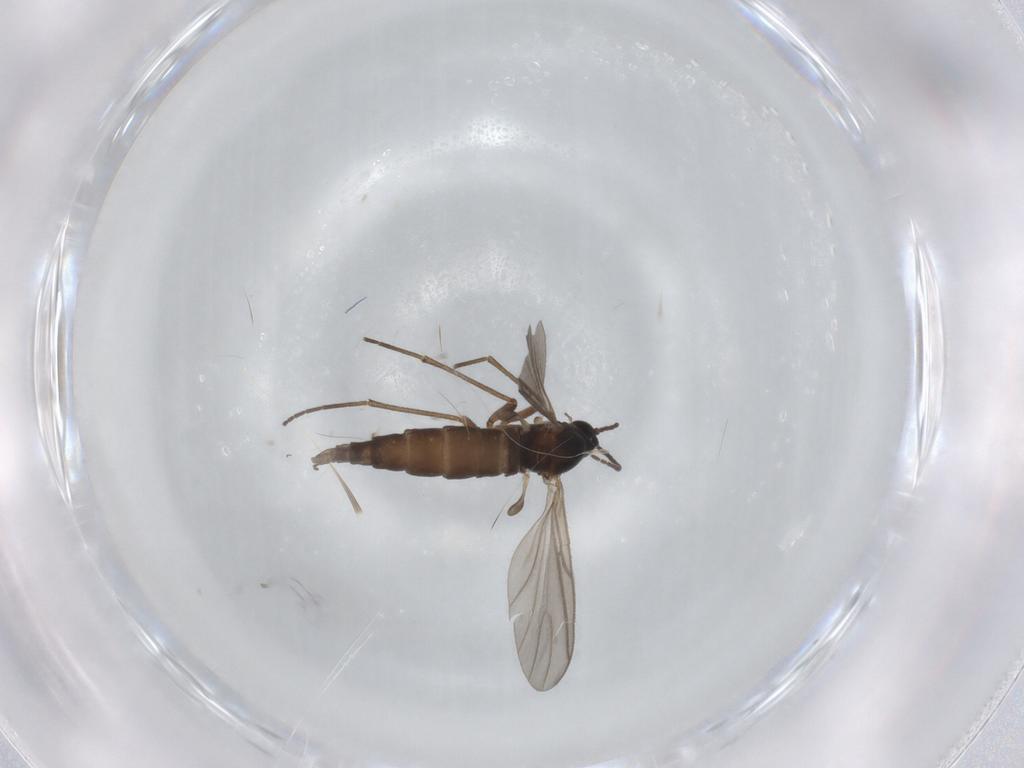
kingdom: Animalia
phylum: Arthropoda
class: Insecta
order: Diptera
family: Sciaridae
